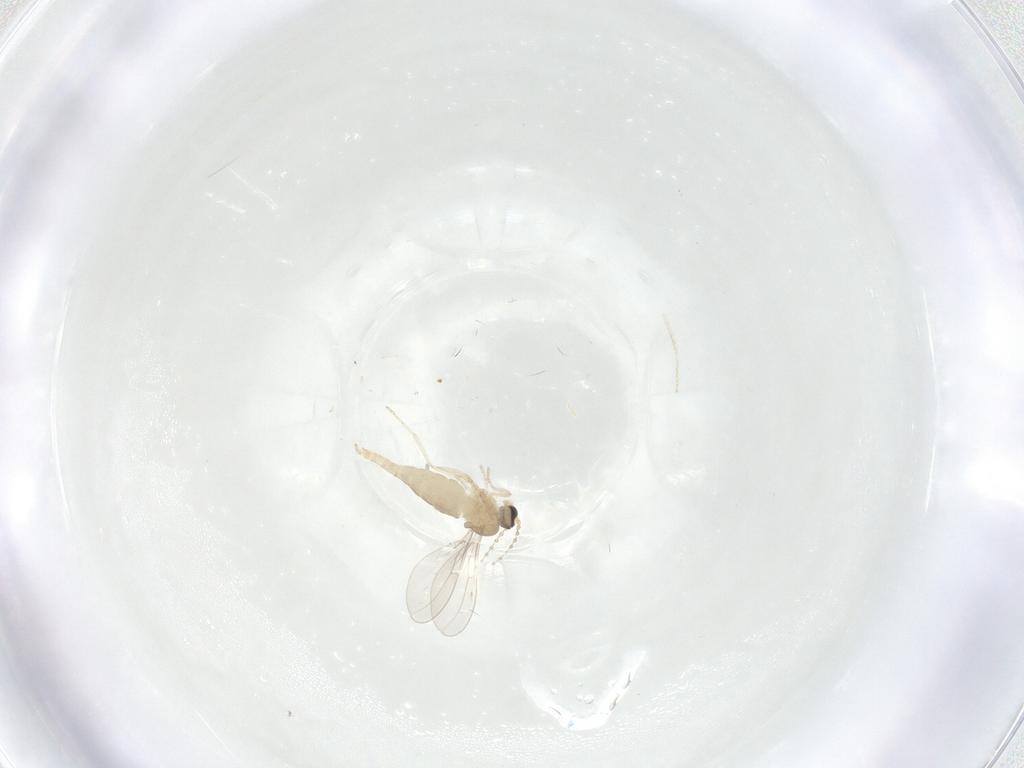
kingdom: Animalia
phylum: Arthropoda
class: Insecta
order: Diptera
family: Cecidomyiidae
